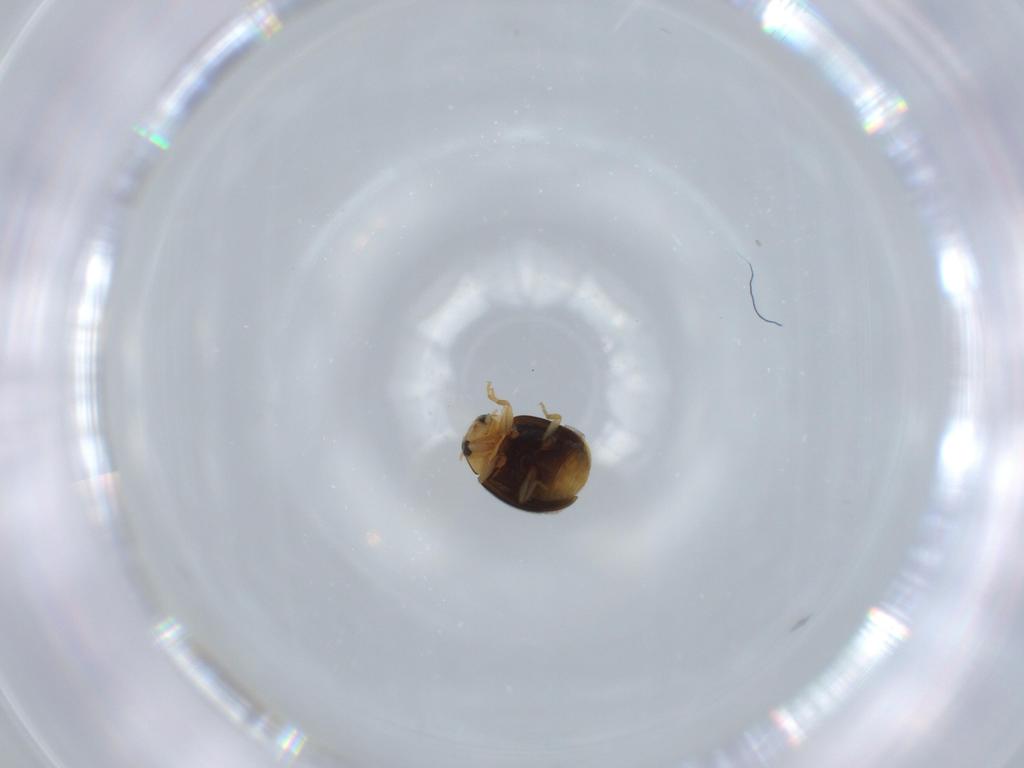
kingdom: Animalia
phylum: Arthropoda
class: Insecta
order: Coleoptera
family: Coccinellidae
